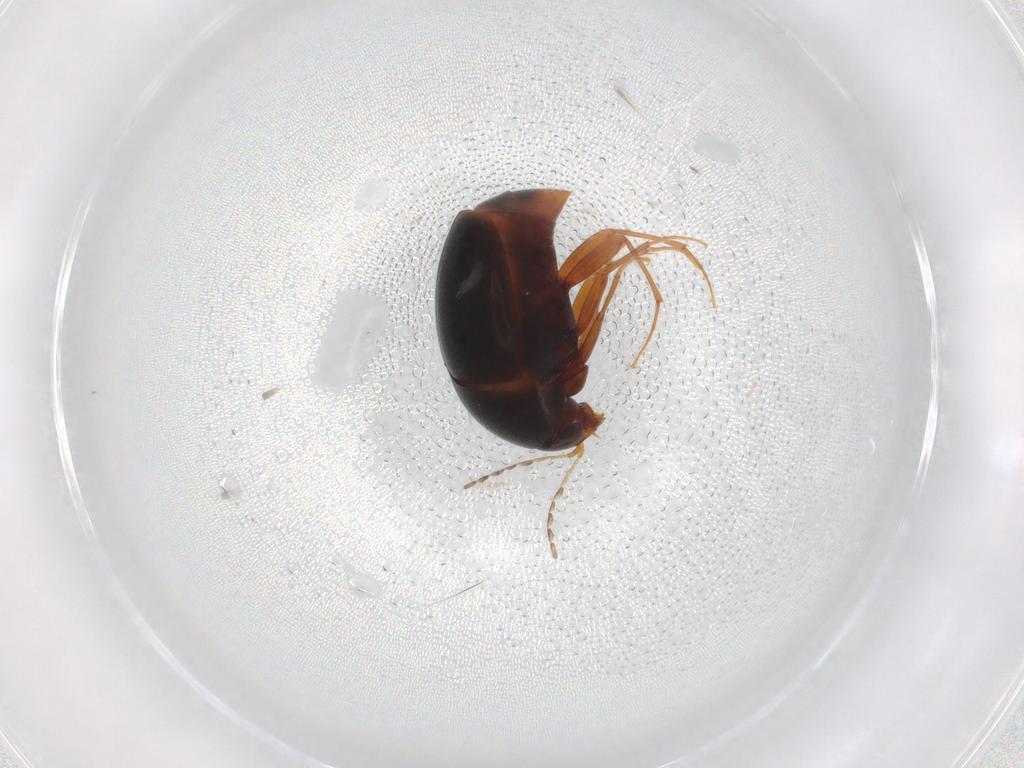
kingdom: Animalia
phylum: Arthropoda
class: Insecta
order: Coleoptera
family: Staphylinidae
